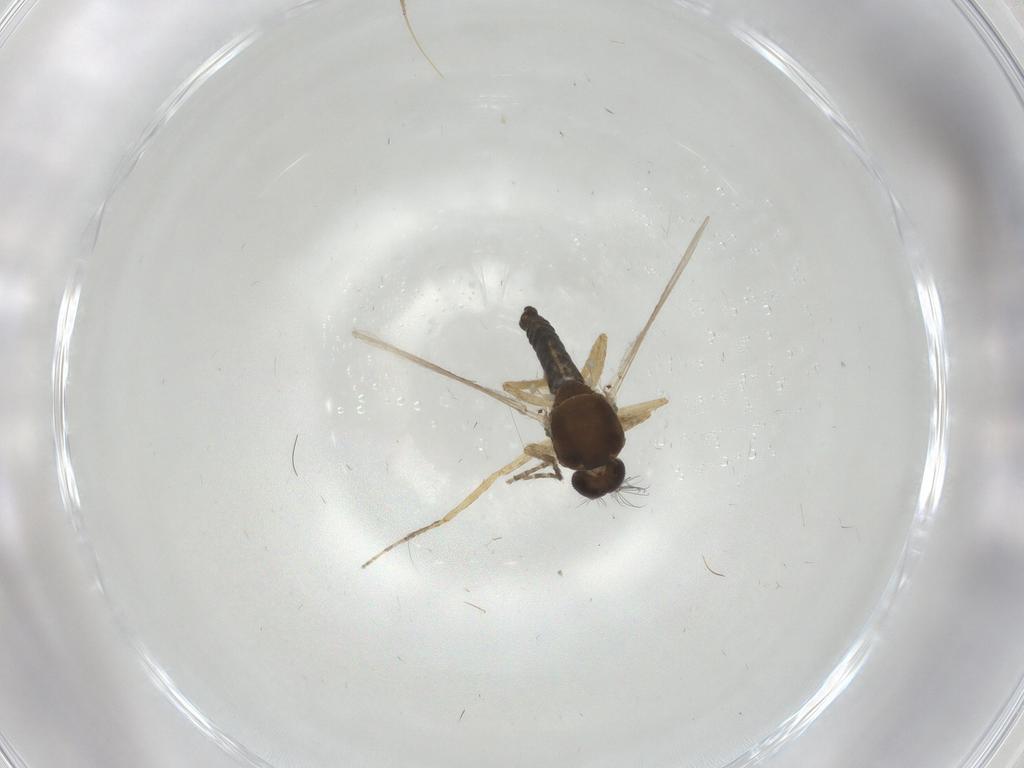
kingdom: Animalia
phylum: Arthropoda
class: Insecta
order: Diptera
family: Ceratopogonidae
